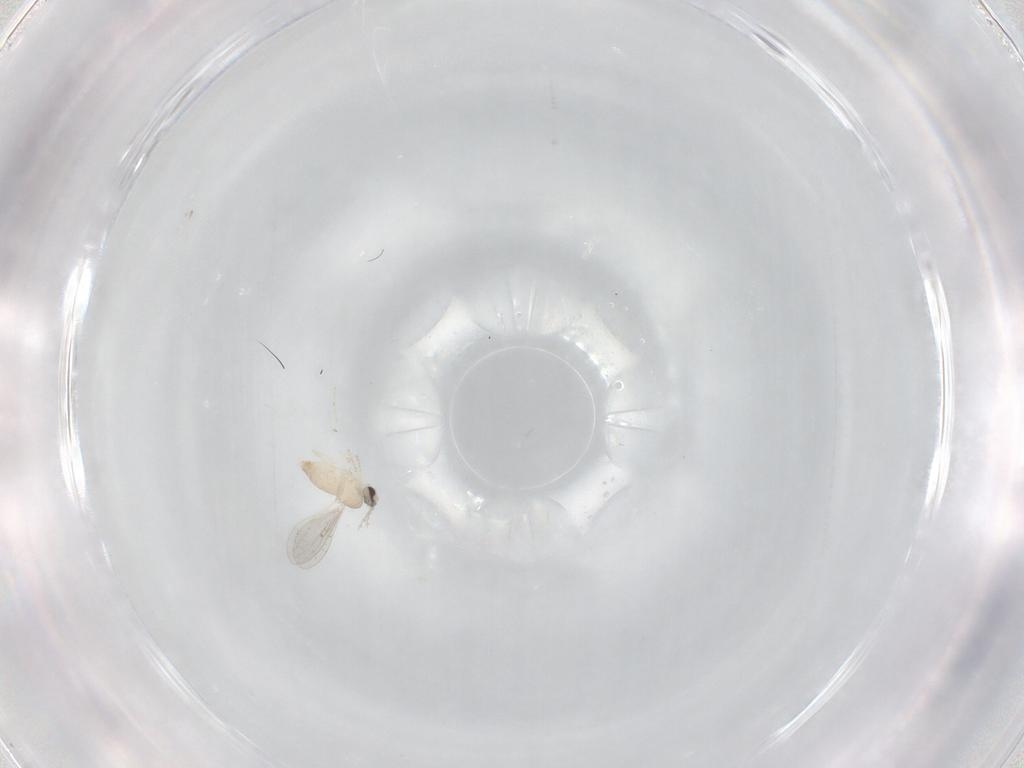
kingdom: Animalia
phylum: Arthropoda
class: Insecta
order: Diptera
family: Cecidomyiidae
